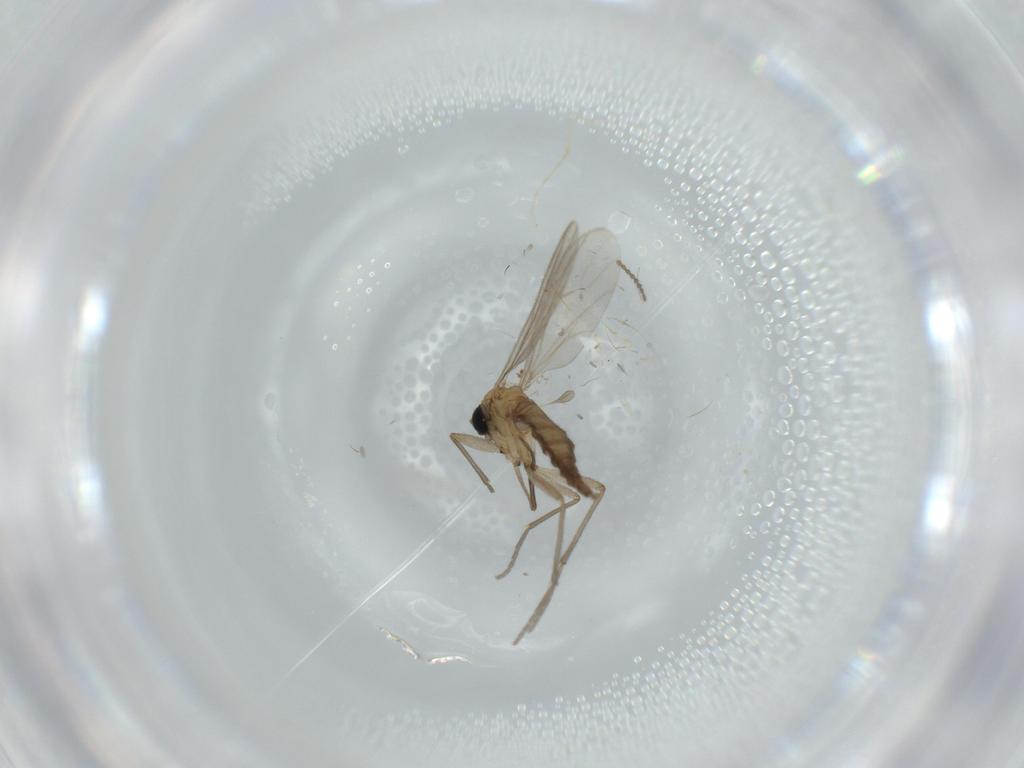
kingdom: Animalia
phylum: Arthropoda
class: Insecta
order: Diptera
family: Sciaridae
